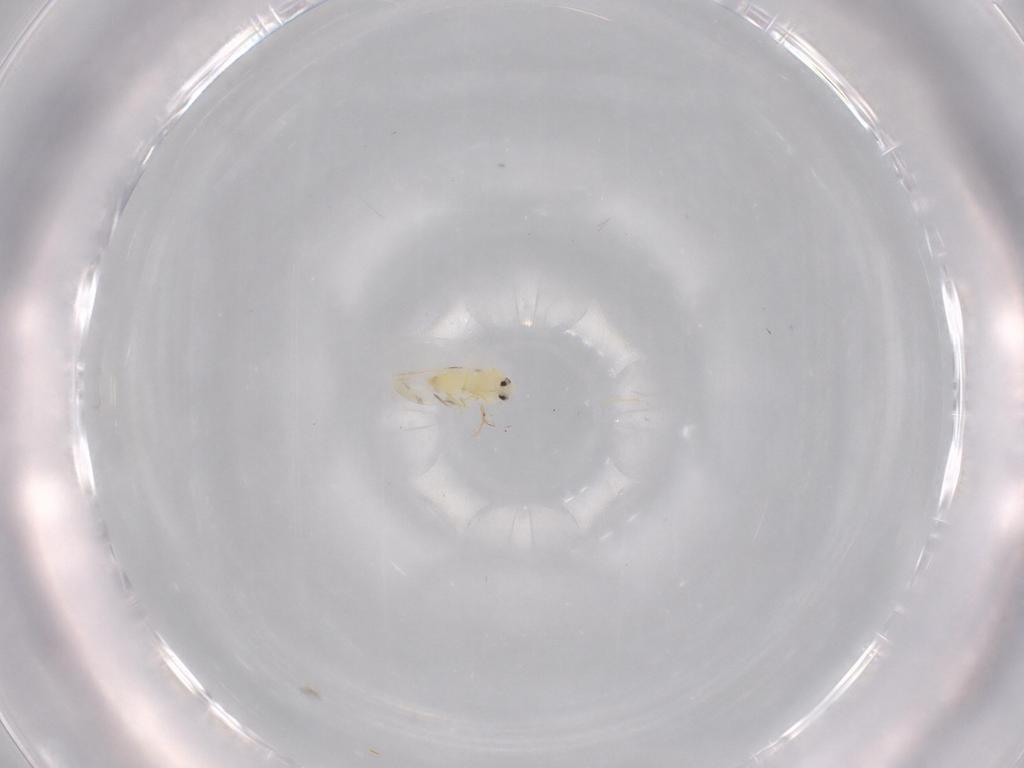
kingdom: Animalia
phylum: Arthropoda
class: Insecta
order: Hemiptera
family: Aleyrodidae
